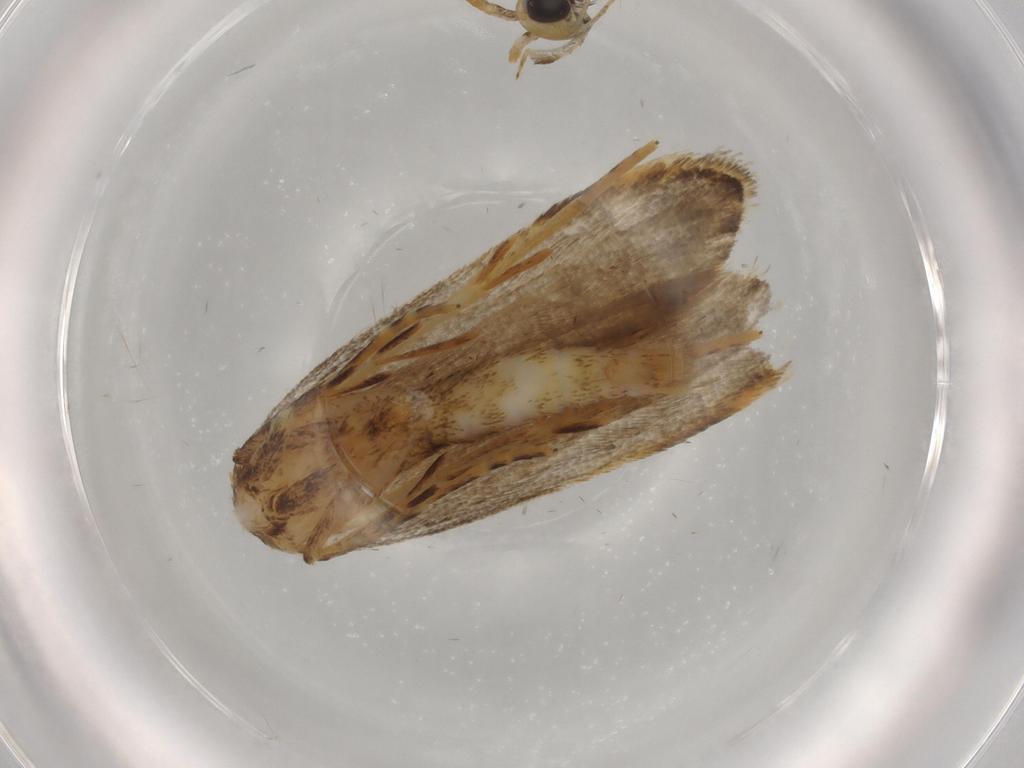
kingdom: Animalia
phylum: Arthropoda
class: Insecta
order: Lepidoptera
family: Autostichidae
